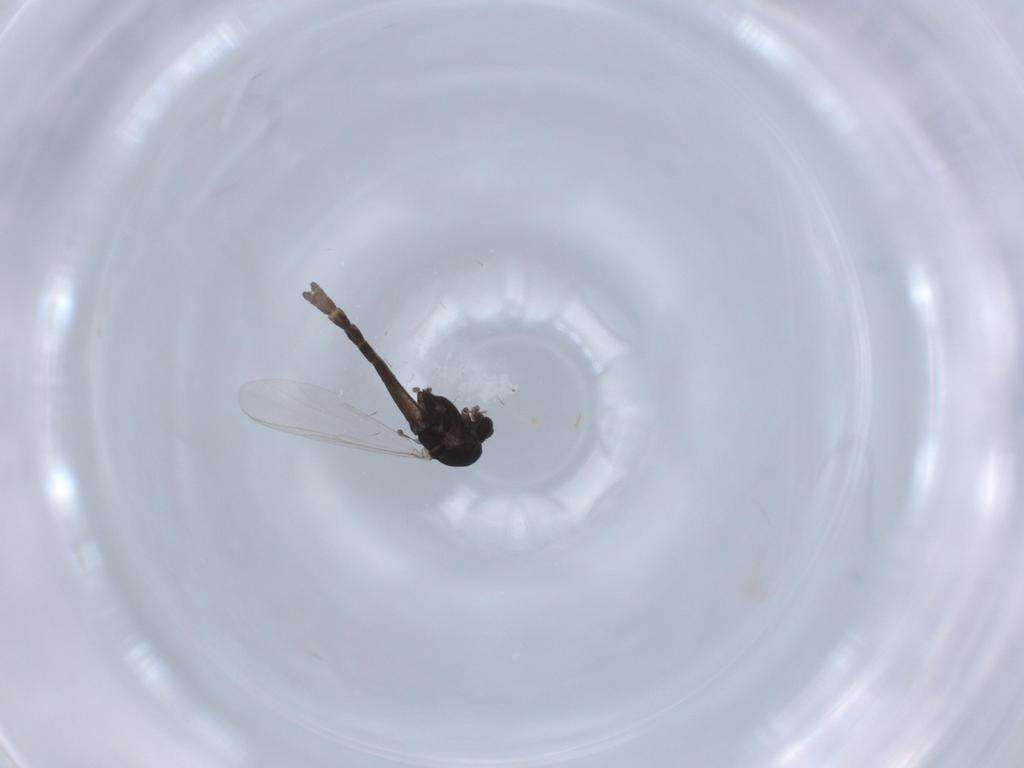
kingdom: Animalia
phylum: Arthropoda
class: Insecta
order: Diptera
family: Chironomidae
